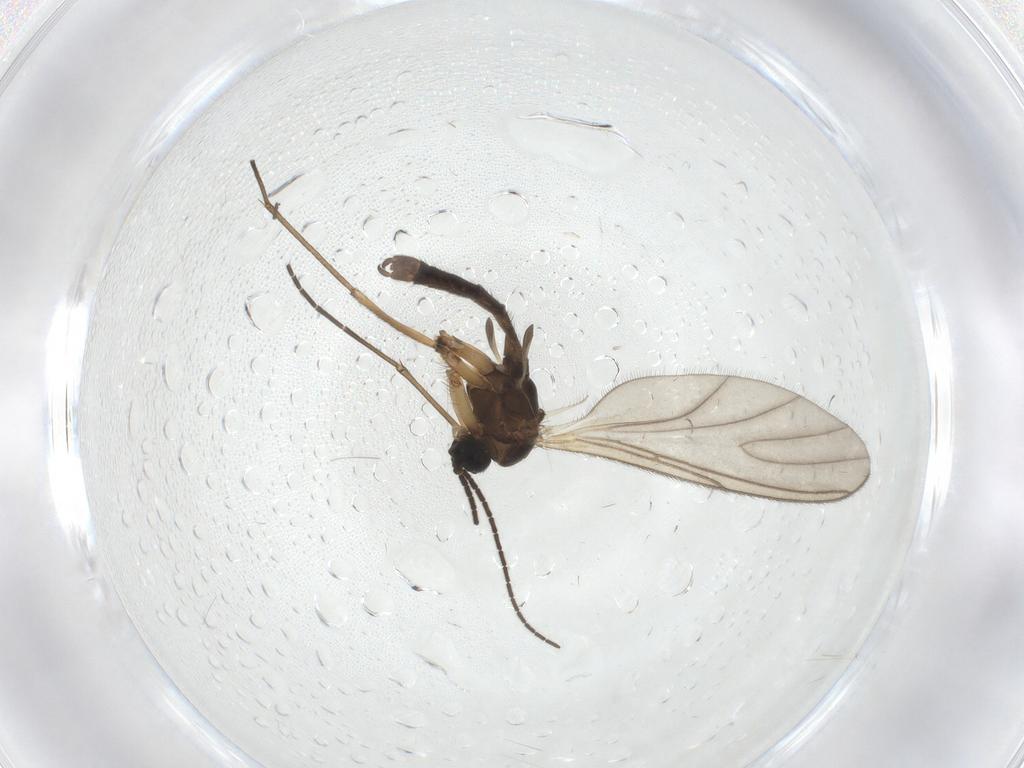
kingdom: Animalia
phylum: Arthropoda
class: Insecta
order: Diptera
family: Sciaridae
